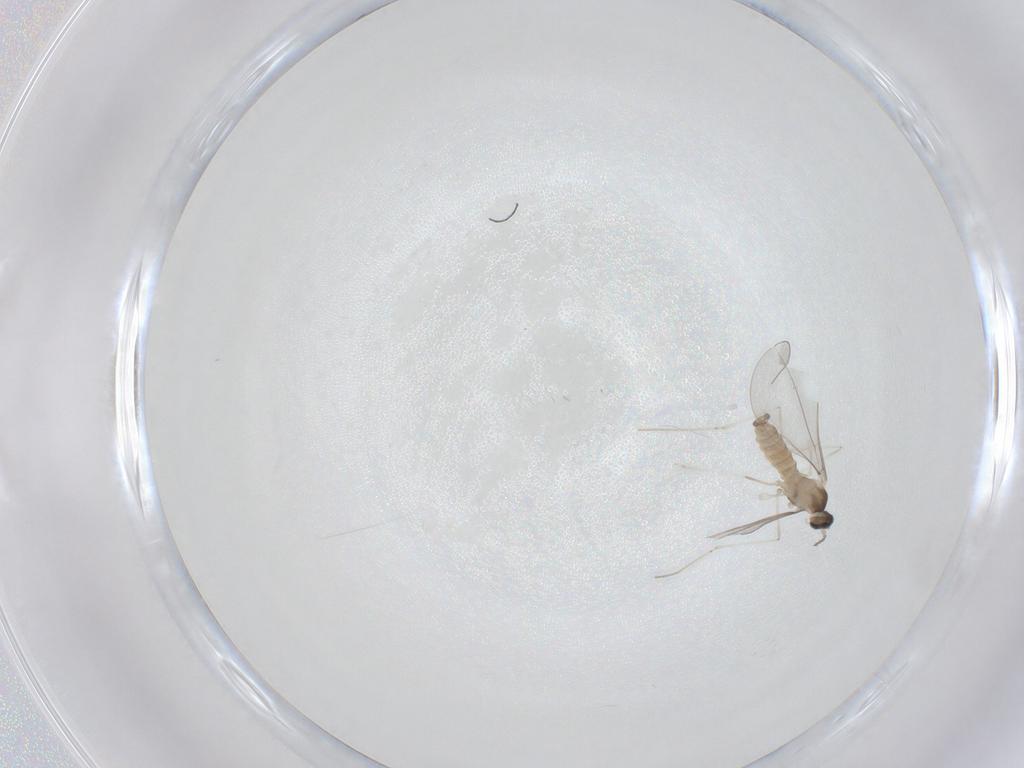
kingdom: Animalia
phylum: Arthropoda
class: Insecta
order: Diptera
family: Cecidomyiidae
